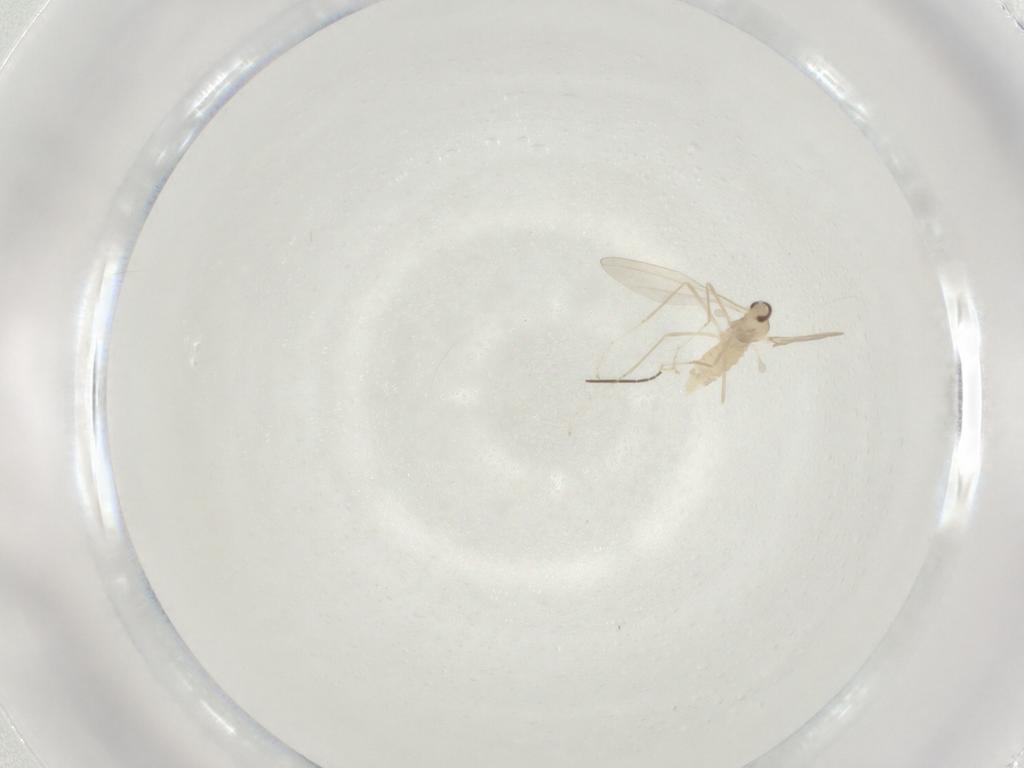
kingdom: Animalia
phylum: Arthropoda
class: Insecta
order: Diptera
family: Cecidomyiidae
